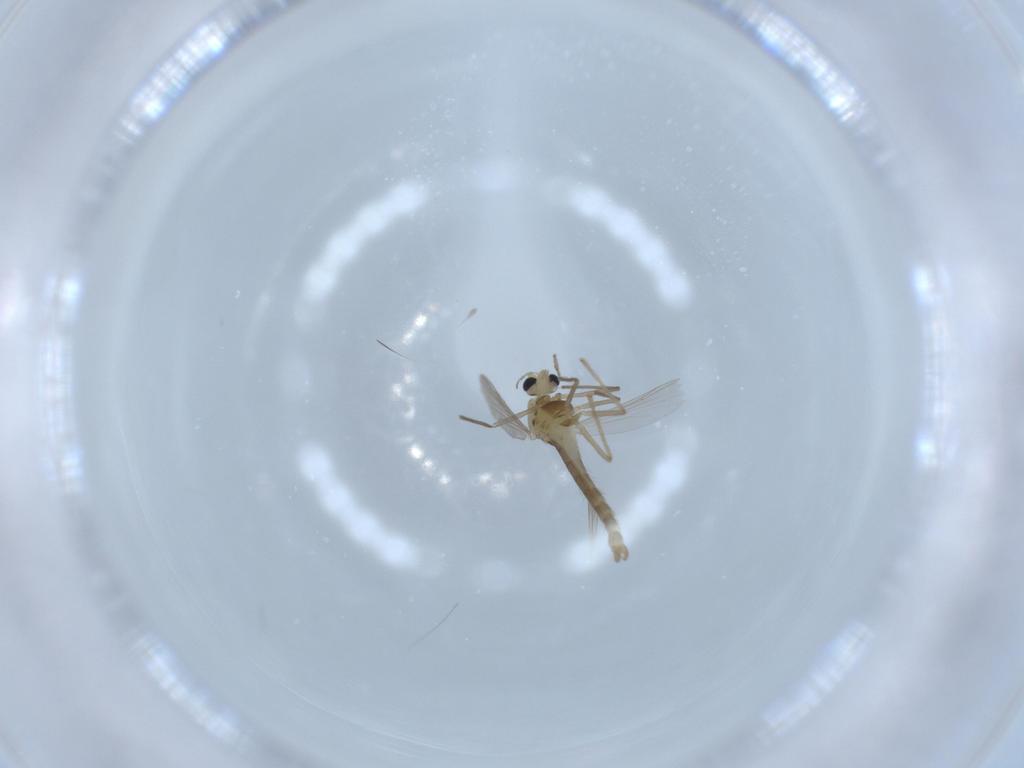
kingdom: Animalia
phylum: Arthropoda
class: Insecta
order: Diptera
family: Chironomidae
